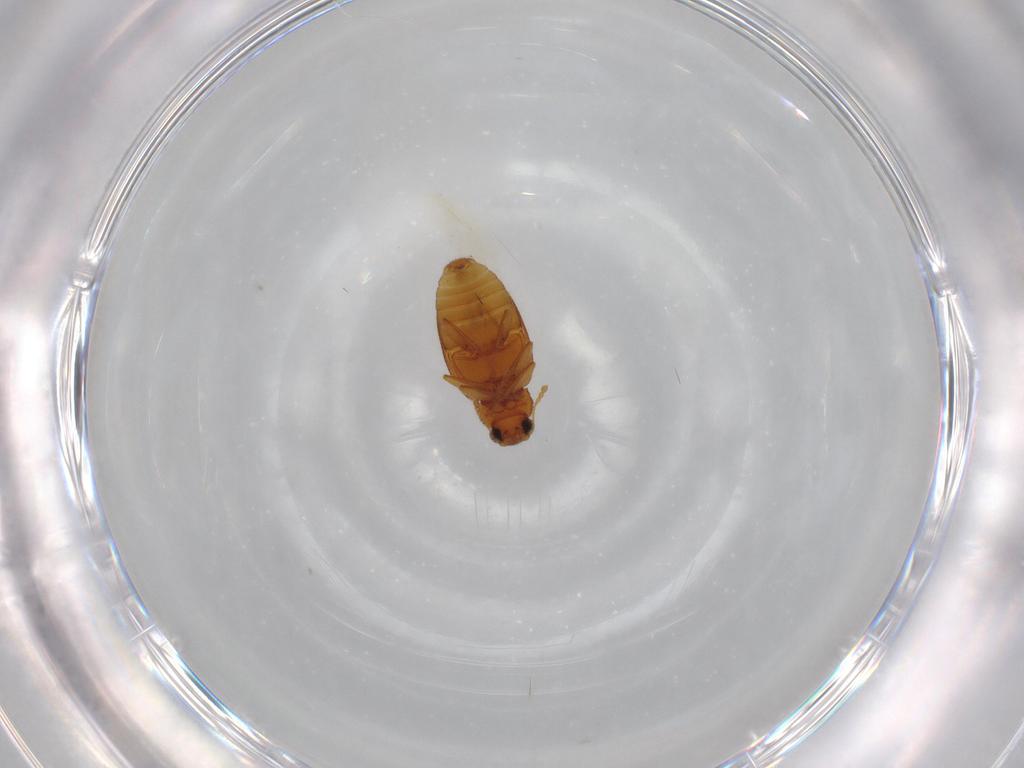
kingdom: Animalia
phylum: Arthropoda
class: Insecta
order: Coleoptera
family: Latridiidae
